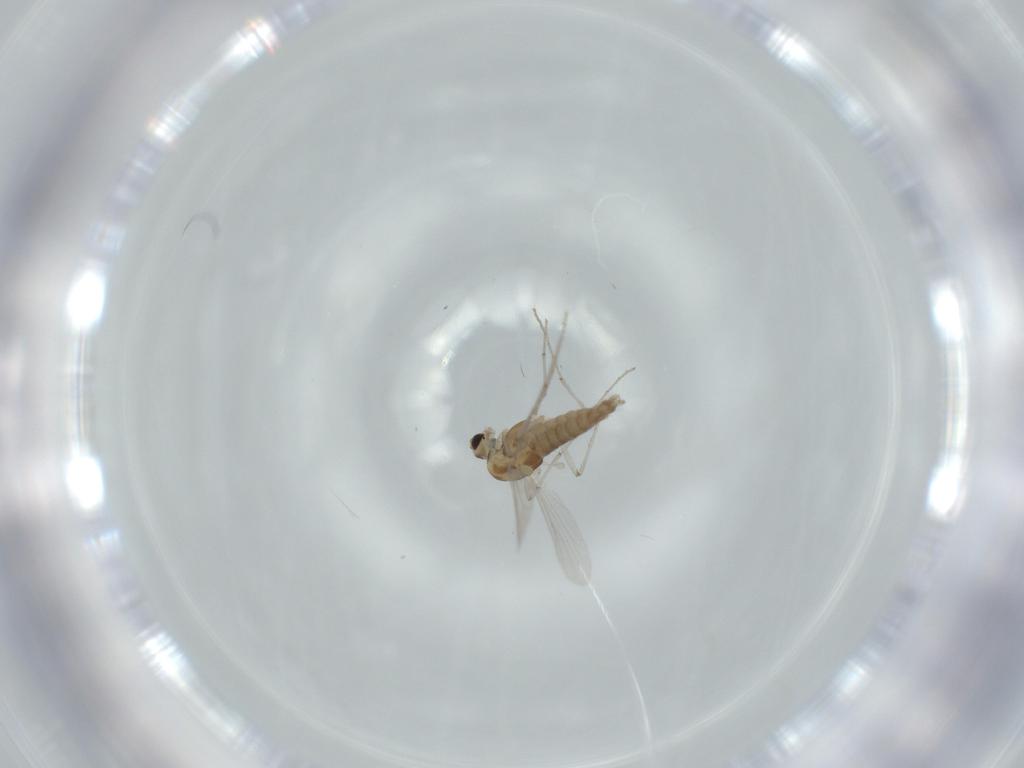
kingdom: Animalia
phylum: Arthropoda
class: Insecta
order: Diptera
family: Chironomidae
